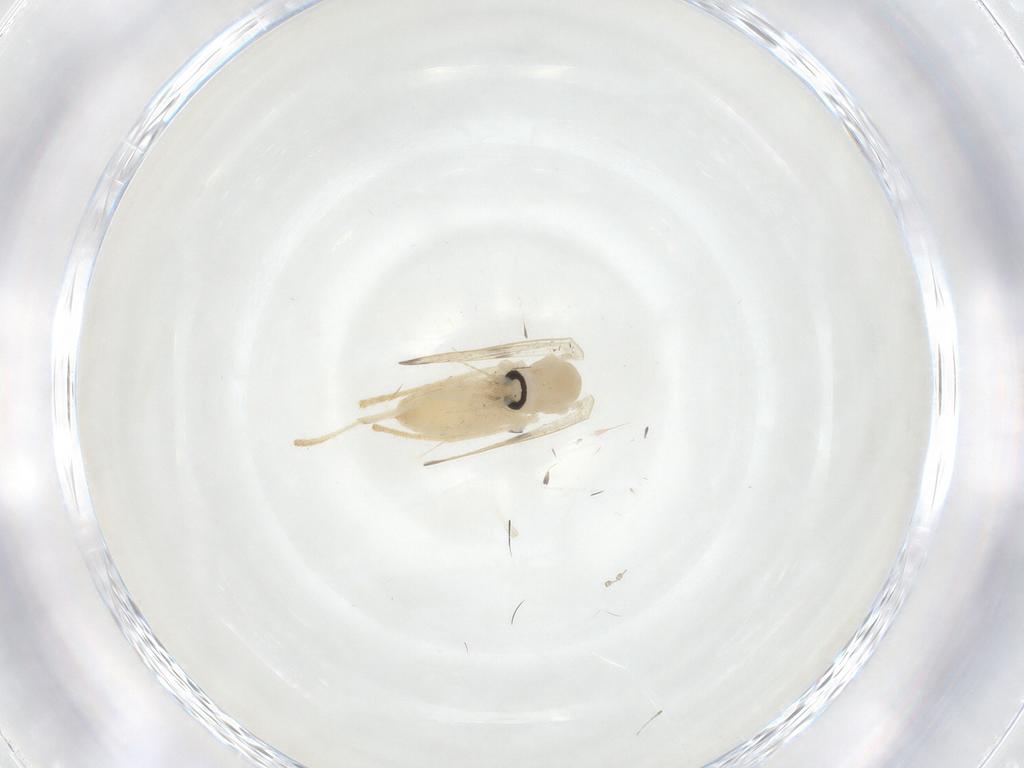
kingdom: Animalia
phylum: Arthropoda
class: Insecta
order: Diptera
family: Psychodidae
